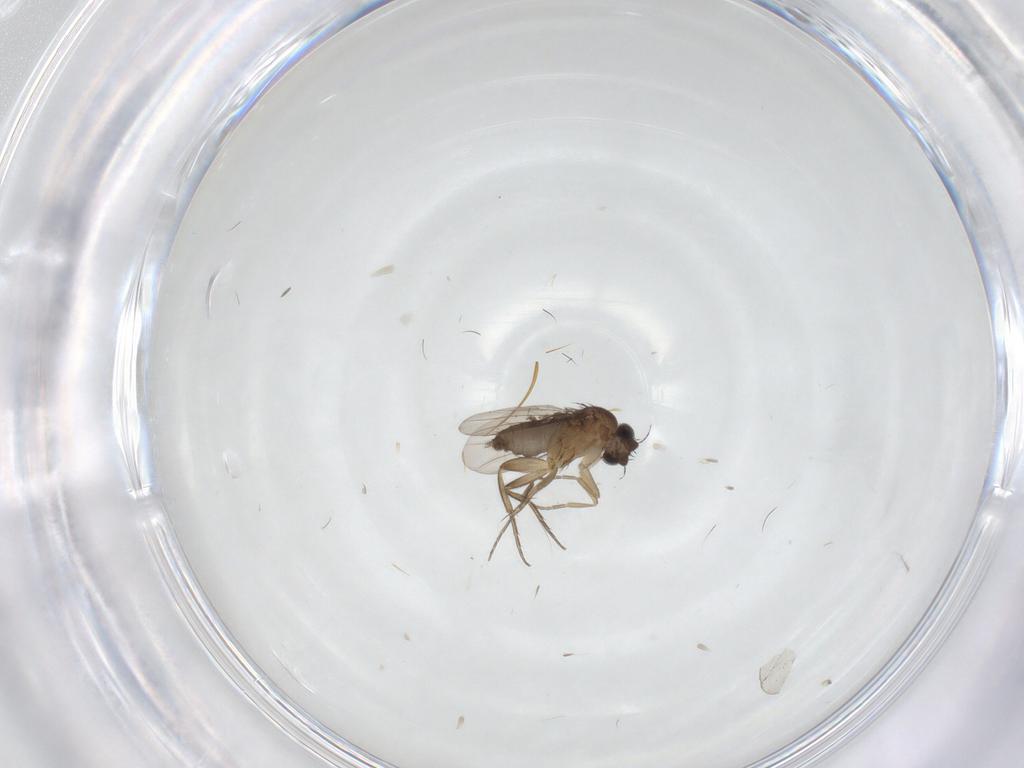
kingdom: Animalia
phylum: Arthropoda
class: Insecta
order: Diptera
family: Phoridae
